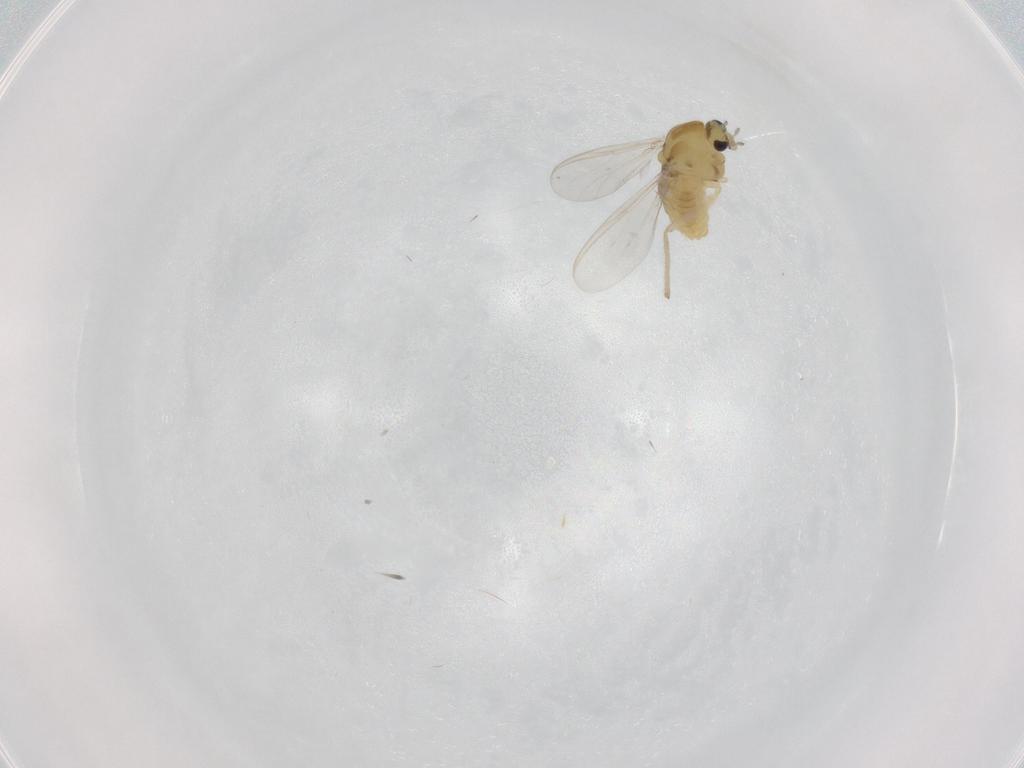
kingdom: Animalia
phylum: Arthropoda
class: Insecta
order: Diptera
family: Chironomidae
